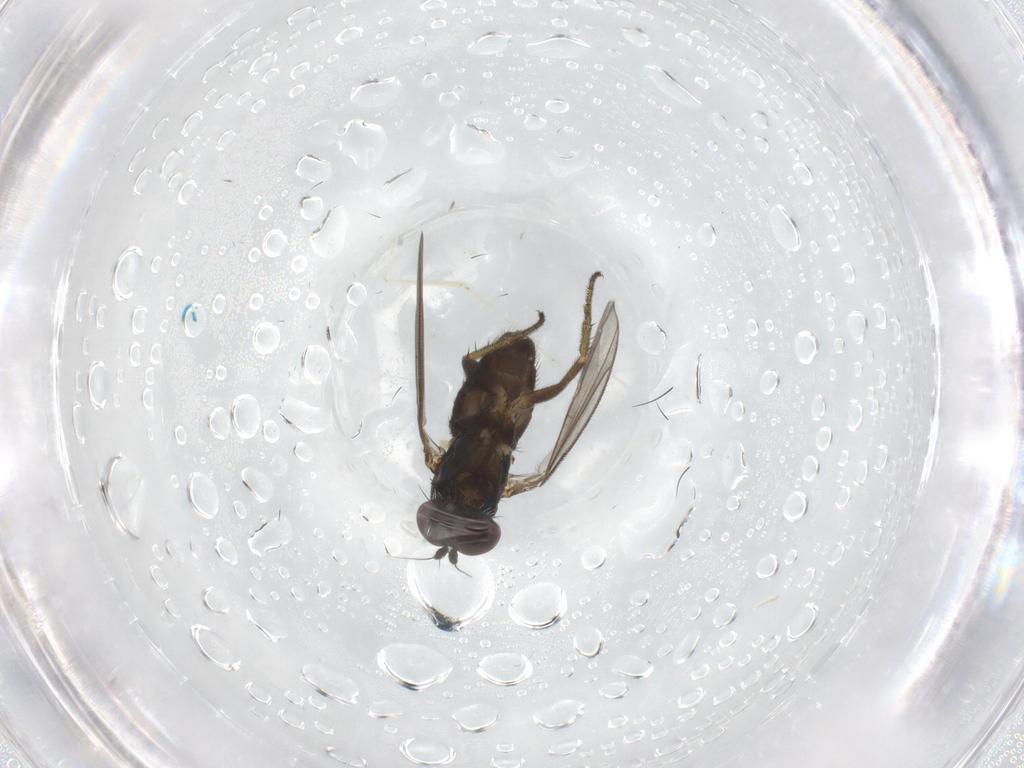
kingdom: Animalia
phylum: Arthropoda
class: Insecta
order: Diptera
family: Cecidomyiidae
